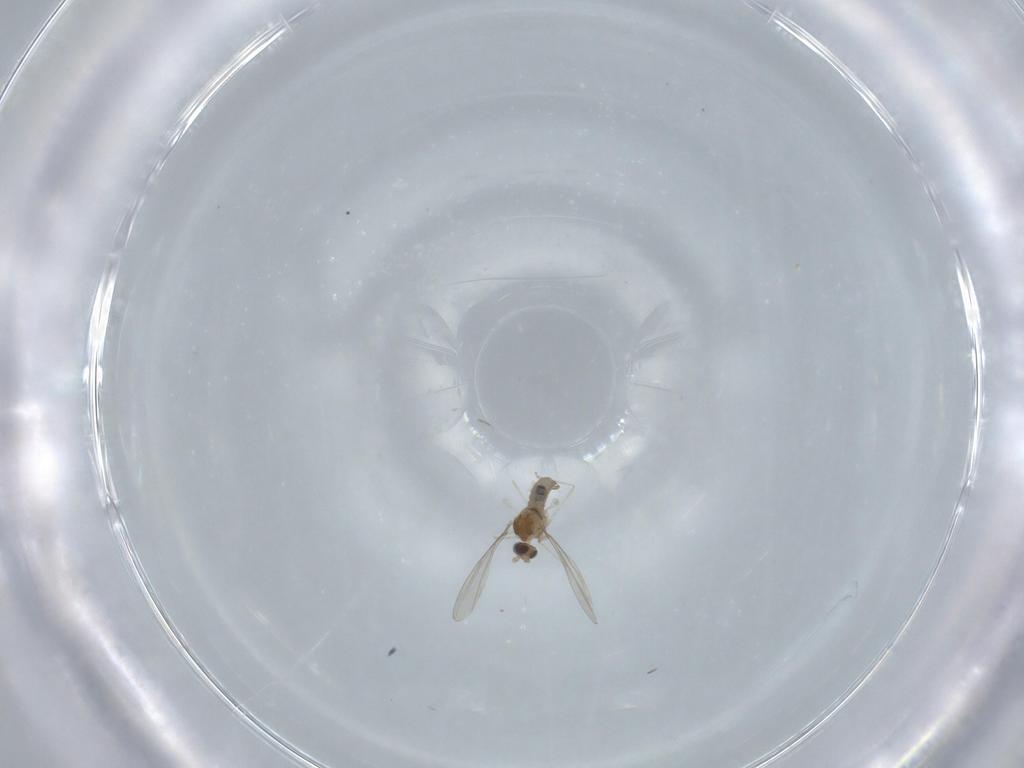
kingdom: Animalia
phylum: Arthropoda
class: Insecta
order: Diptera
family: Cecidomyiidae
